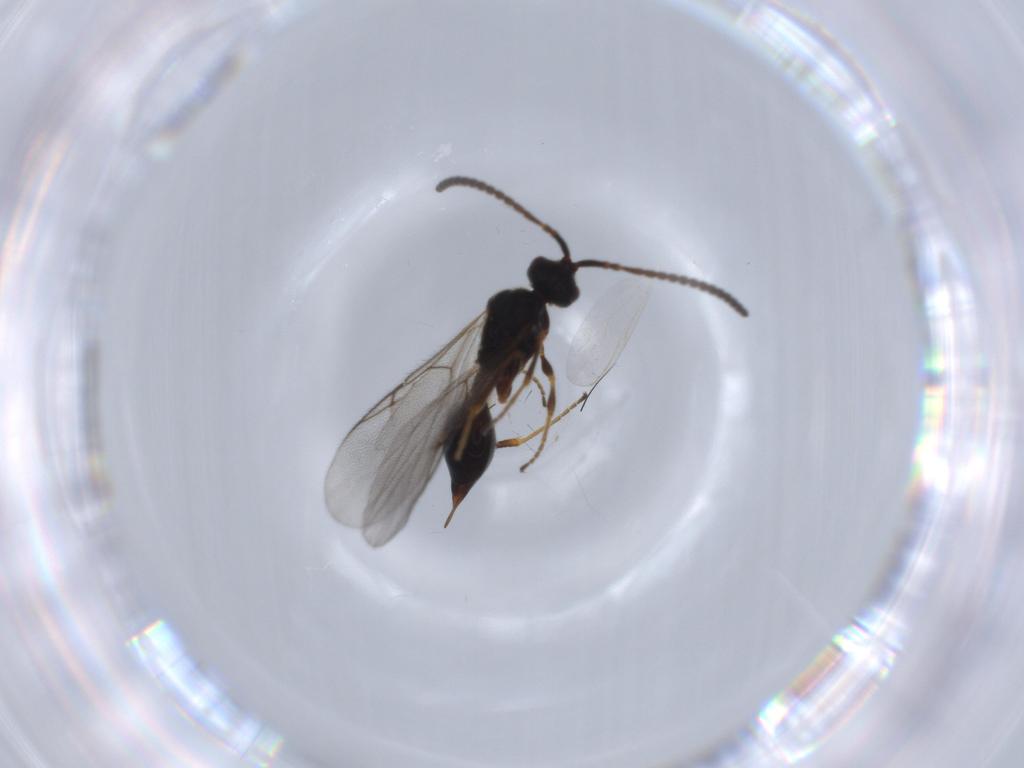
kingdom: Animalia
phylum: Arthropoda
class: Insecta
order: Hymenoptera
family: Diapriidae
